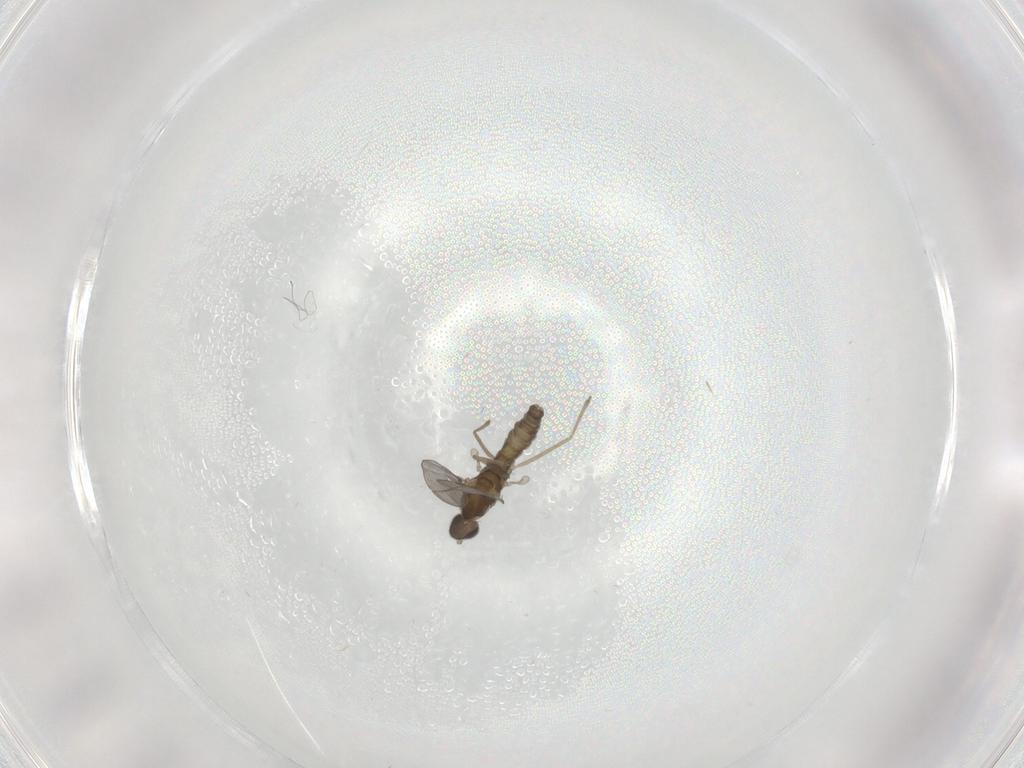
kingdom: Animalia
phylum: Arthropoda
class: Insecta
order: Diptera
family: Cecidomyiidae
